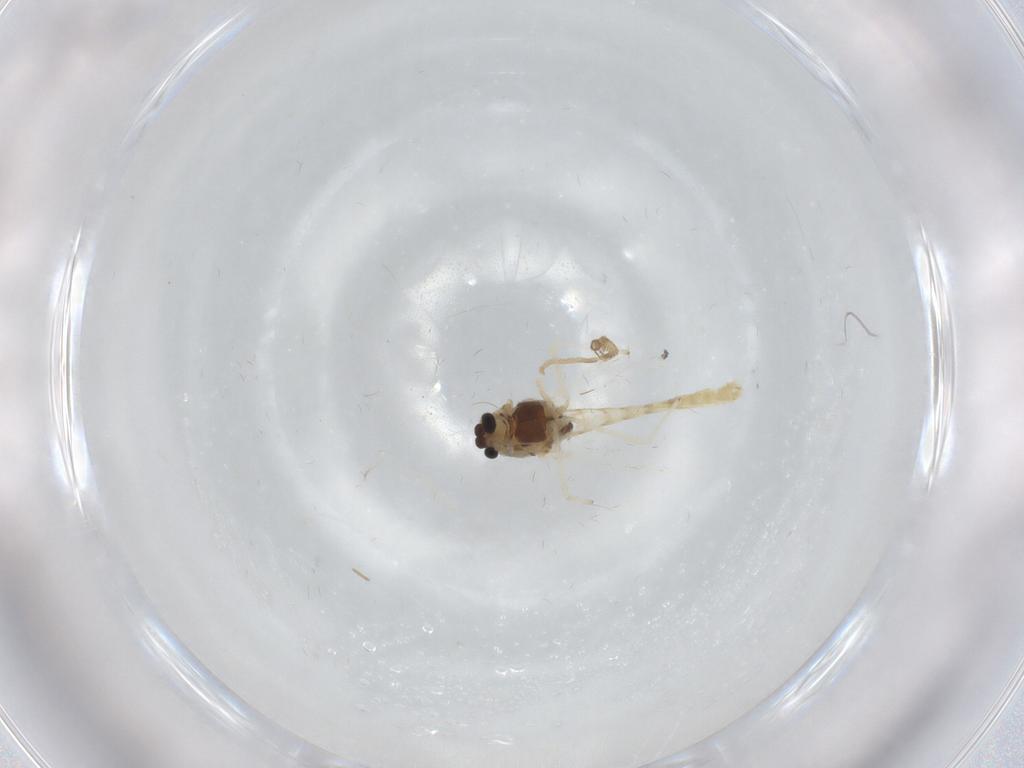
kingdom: Animalia
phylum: Arthropoda
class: Insecta
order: Diptera
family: Chironomidae
